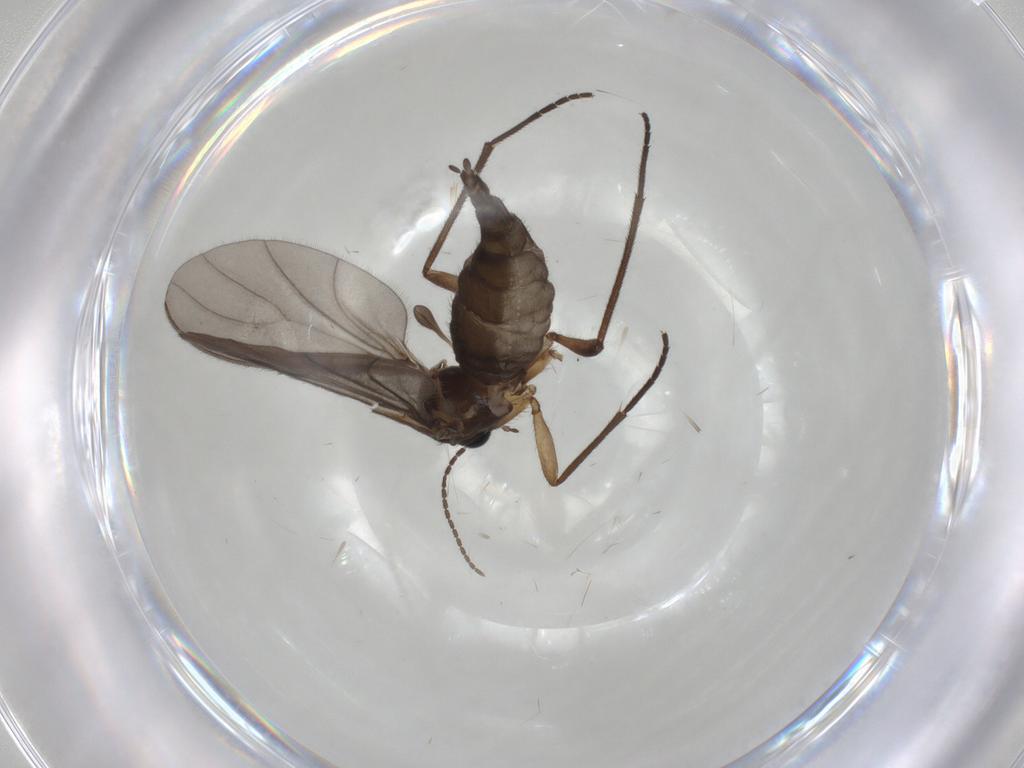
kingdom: Animalia
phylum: Arthropoda
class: Insecta
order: Diptera
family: Sciaridae
